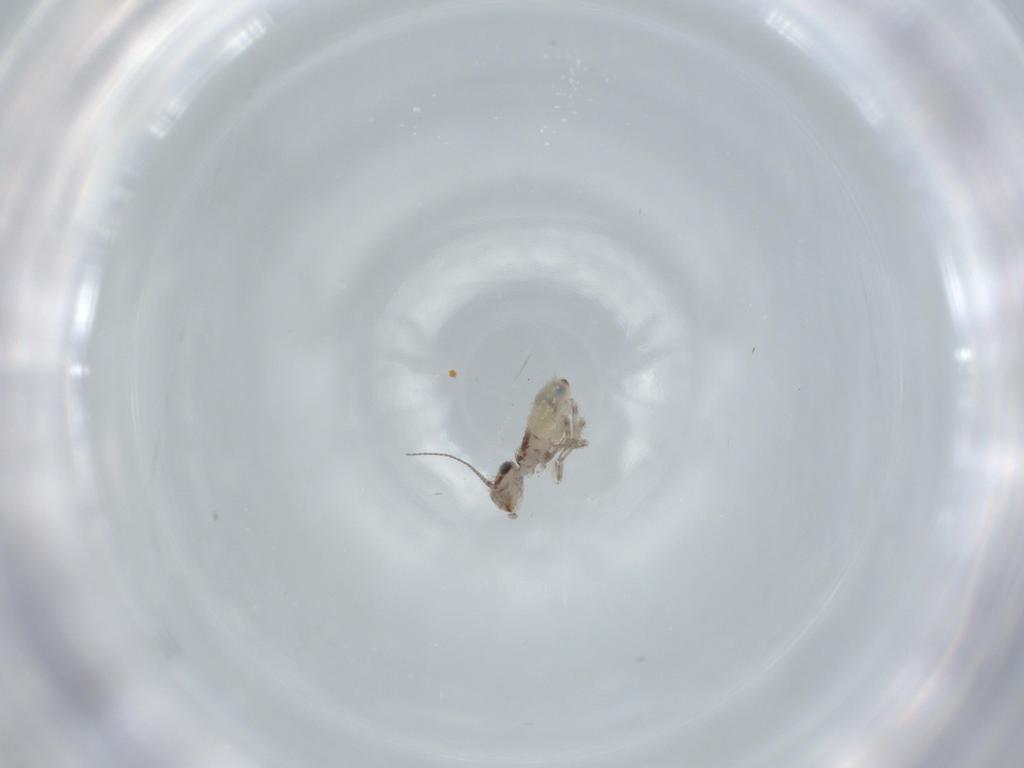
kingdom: Animalia
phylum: Arthropoda
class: Insecta
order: Psocodea
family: Lepidopsocidae
